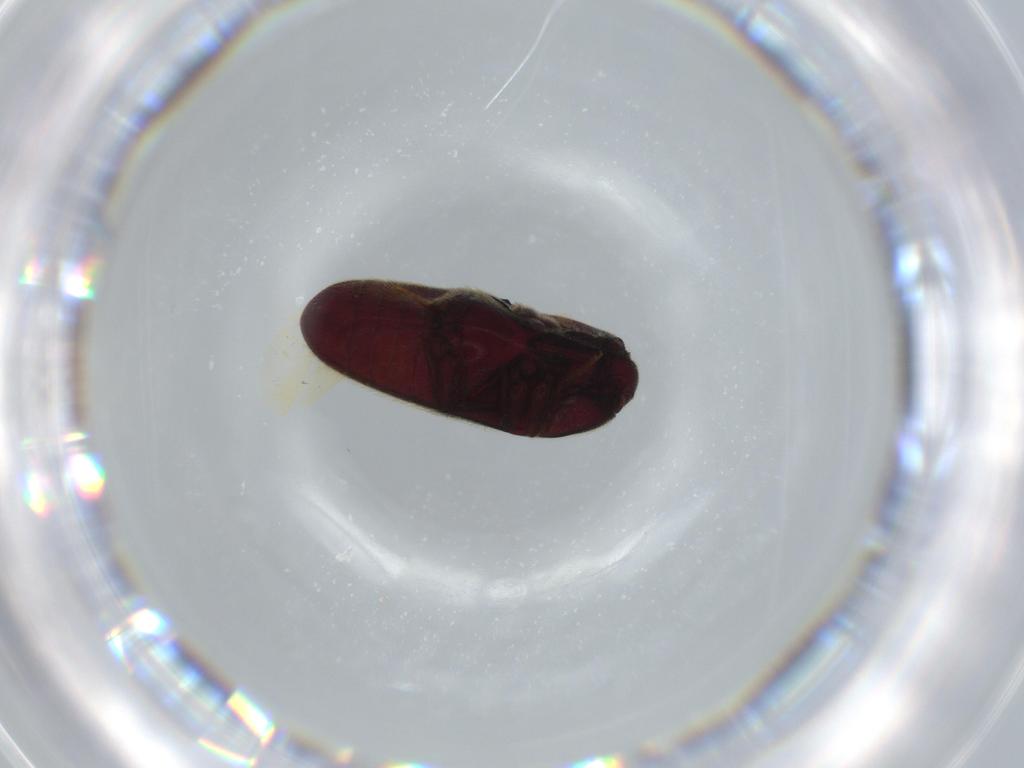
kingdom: Animalia
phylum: Arthropoda
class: Insecta
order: Coleoptera
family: Throscidae
